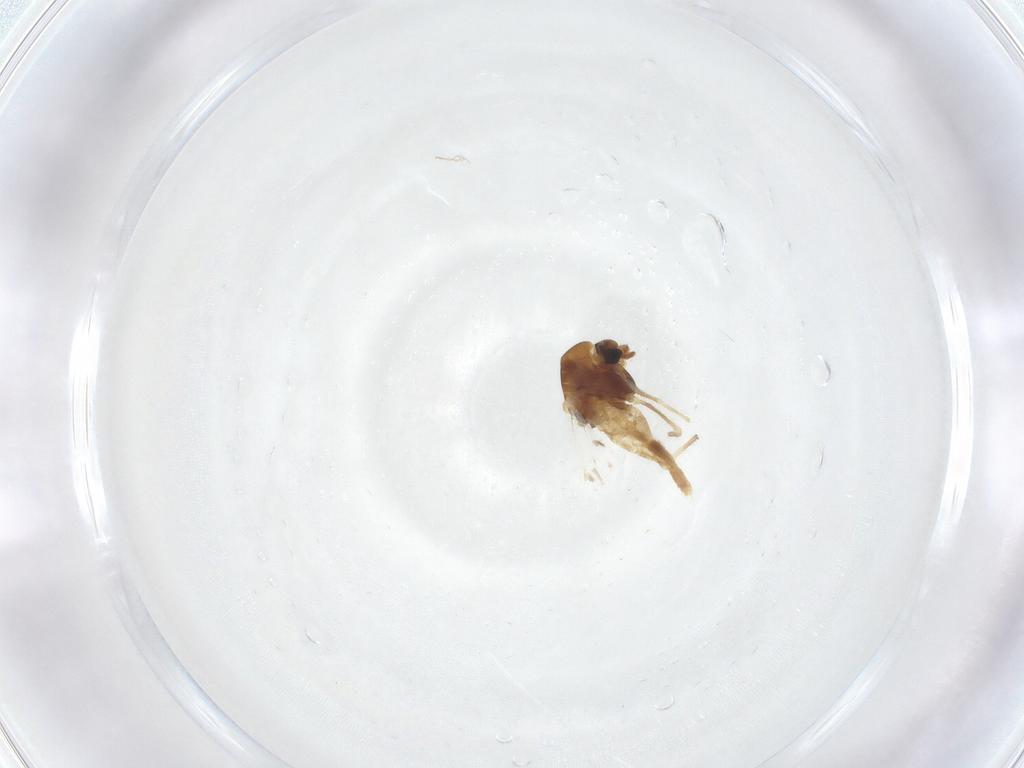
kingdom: Animalia
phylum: Arthropoda
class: Insecta
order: Diptera
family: Chironomidae
